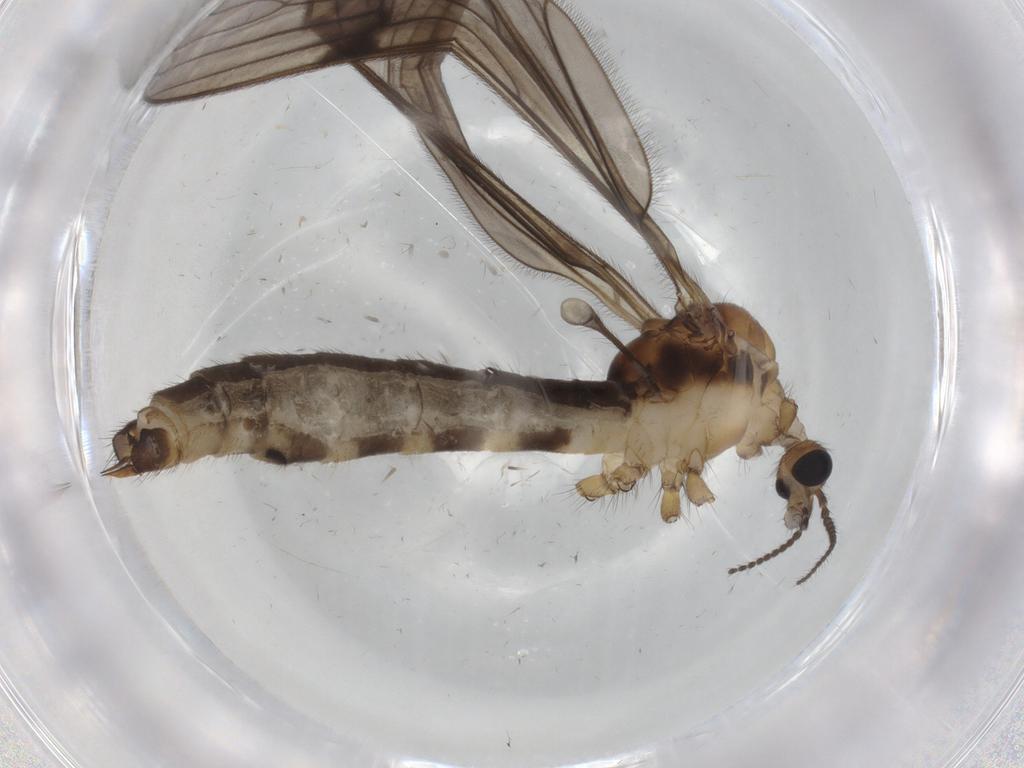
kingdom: Animalia
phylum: Arthropoda
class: Insecta
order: Diptera
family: Limoniidae
